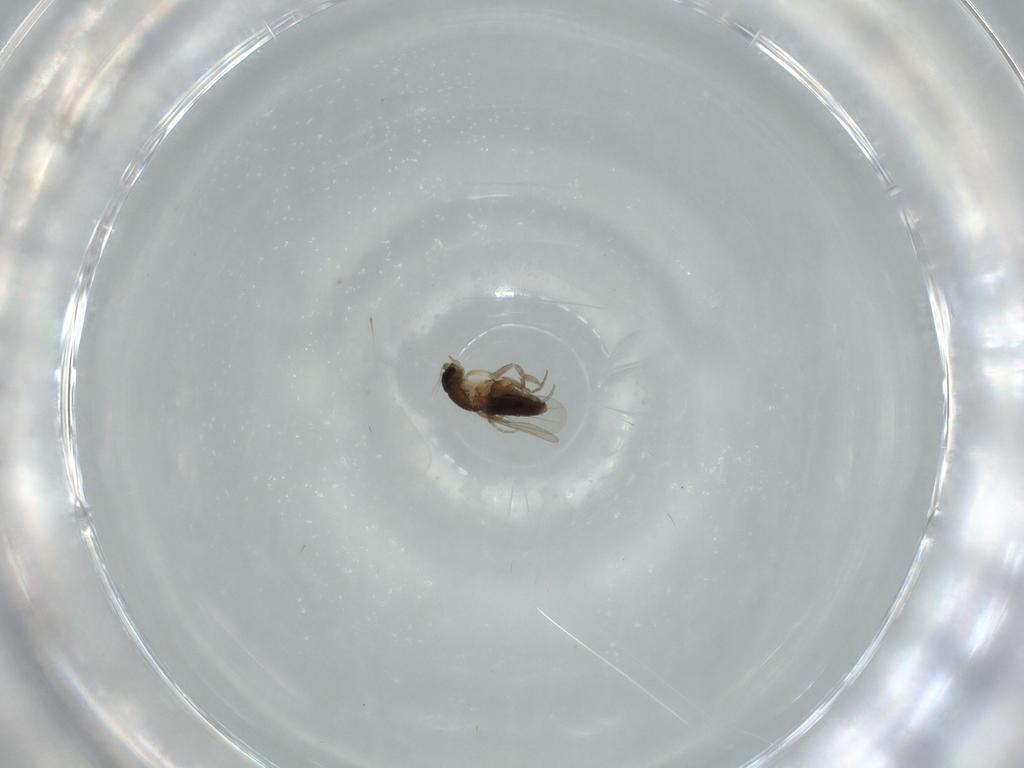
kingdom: Animalia
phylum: Arthropoda
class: Insecta
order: Diptera
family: Phoridae
